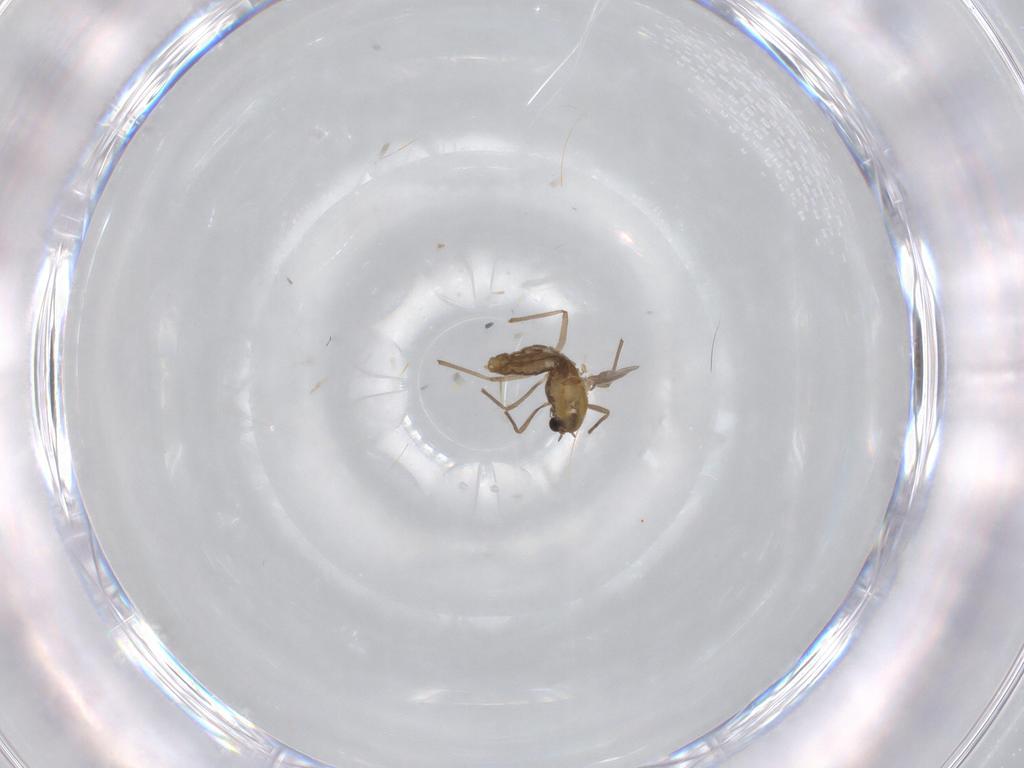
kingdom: Animalia
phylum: Arthropoda
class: Insecta
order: Diptera
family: Chironomidae
